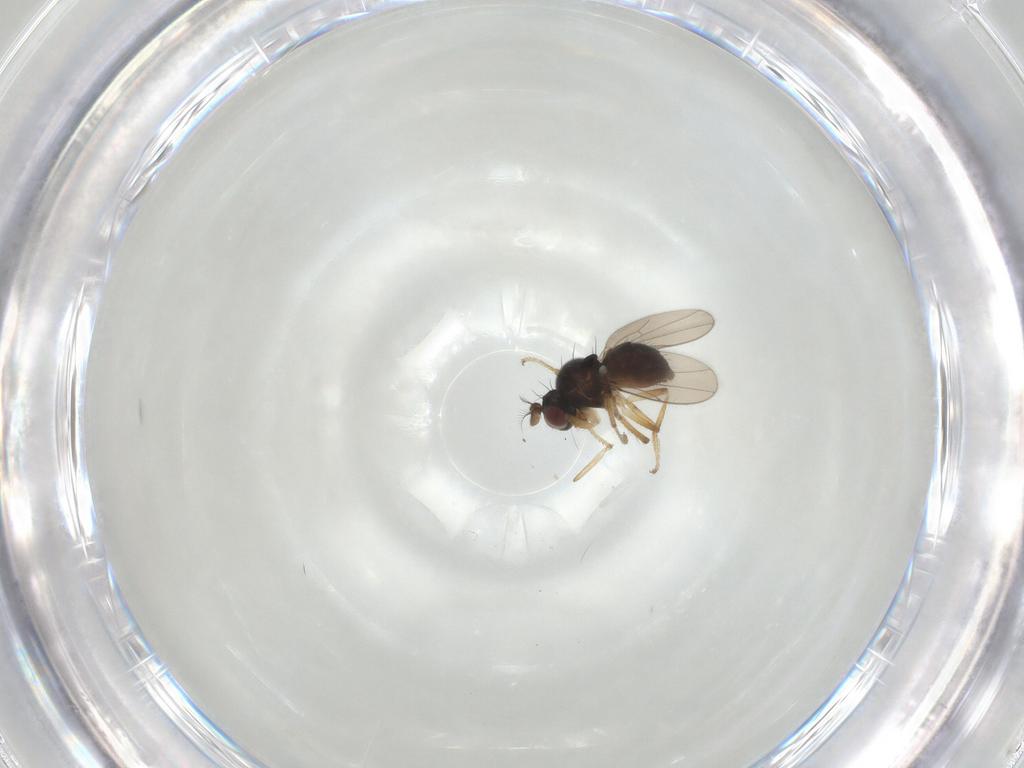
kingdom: Animalia
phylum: Arthropoda
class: Insecta
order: Diptera
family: Ephydridae
